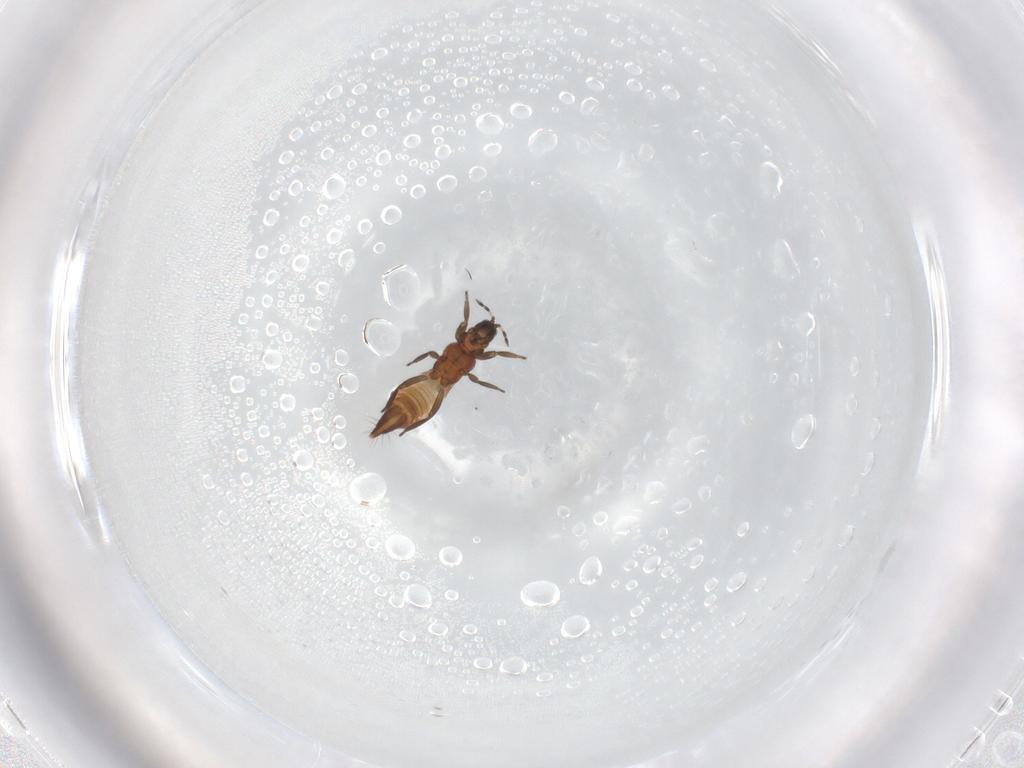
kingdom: Animalia
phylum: Arthropoda
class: Insecta
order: Thysanoptera
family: Aeolothripidae
